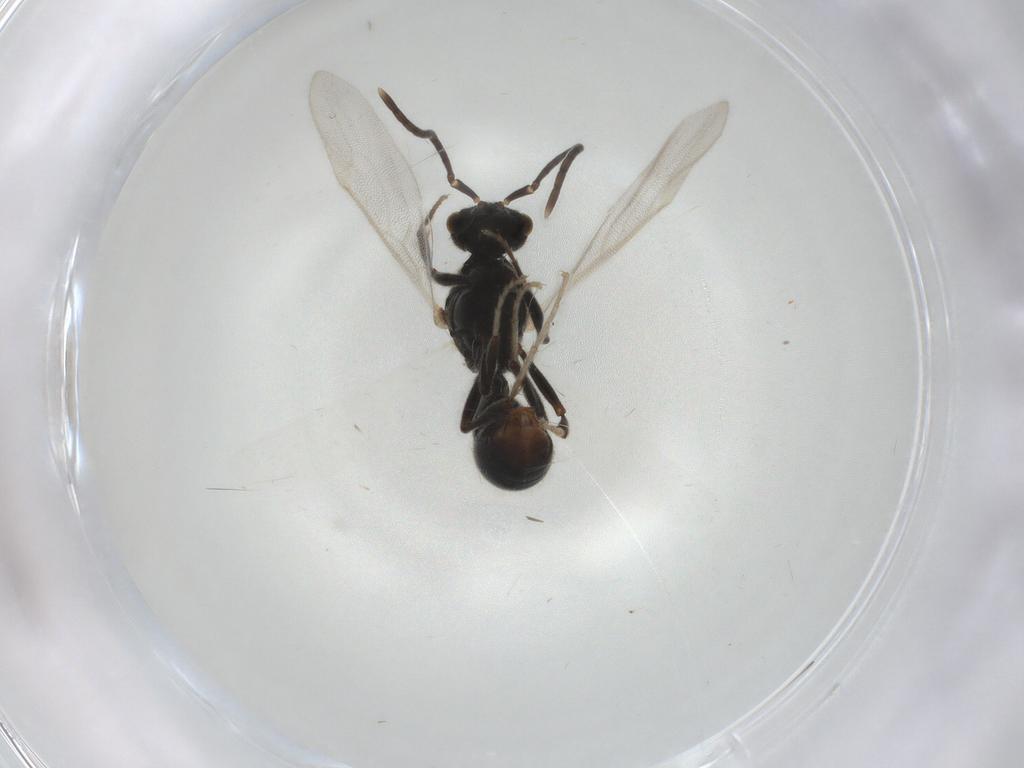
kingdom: Animalia
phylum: Arthropoda
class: Insecta
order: Hymenoptera
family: Formicidae
